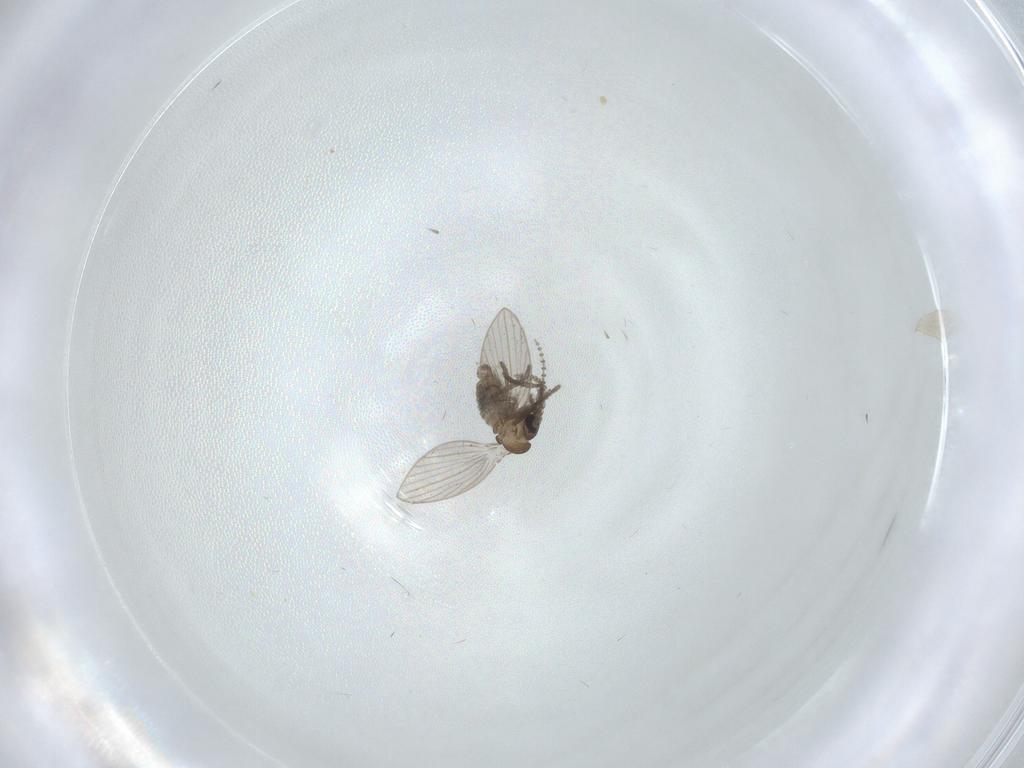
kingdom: Animalia
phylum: Arthropoda
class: Insecta
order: Diptera
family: Psychodidae
